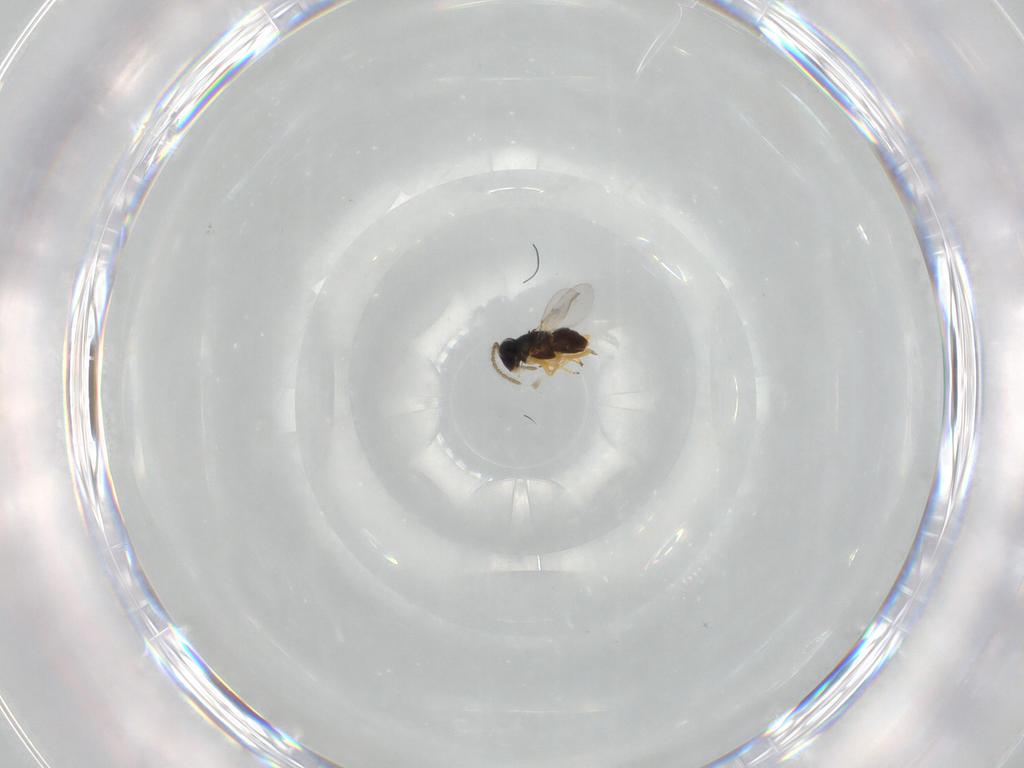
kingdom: Animalia
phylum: Arthropoda
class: Insecta
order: Hymenoptera
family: Encyrtidae
